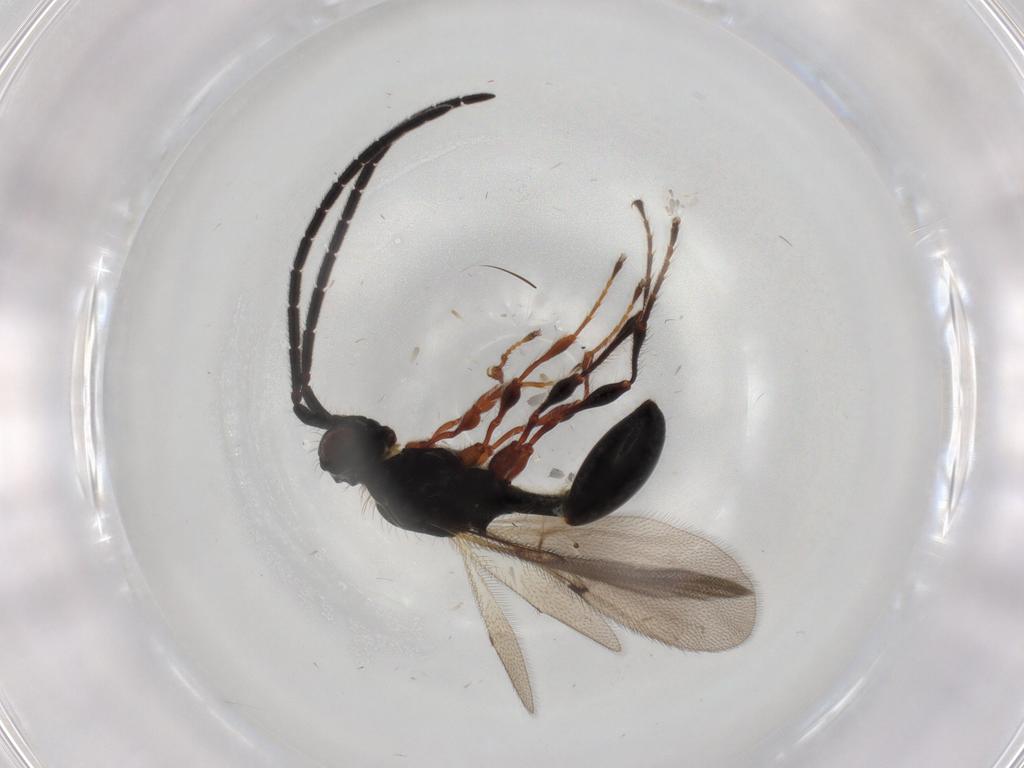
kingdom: Animalia
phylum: Arthropoda
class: Insecta
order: Hymenoptera
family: Diapriidae
